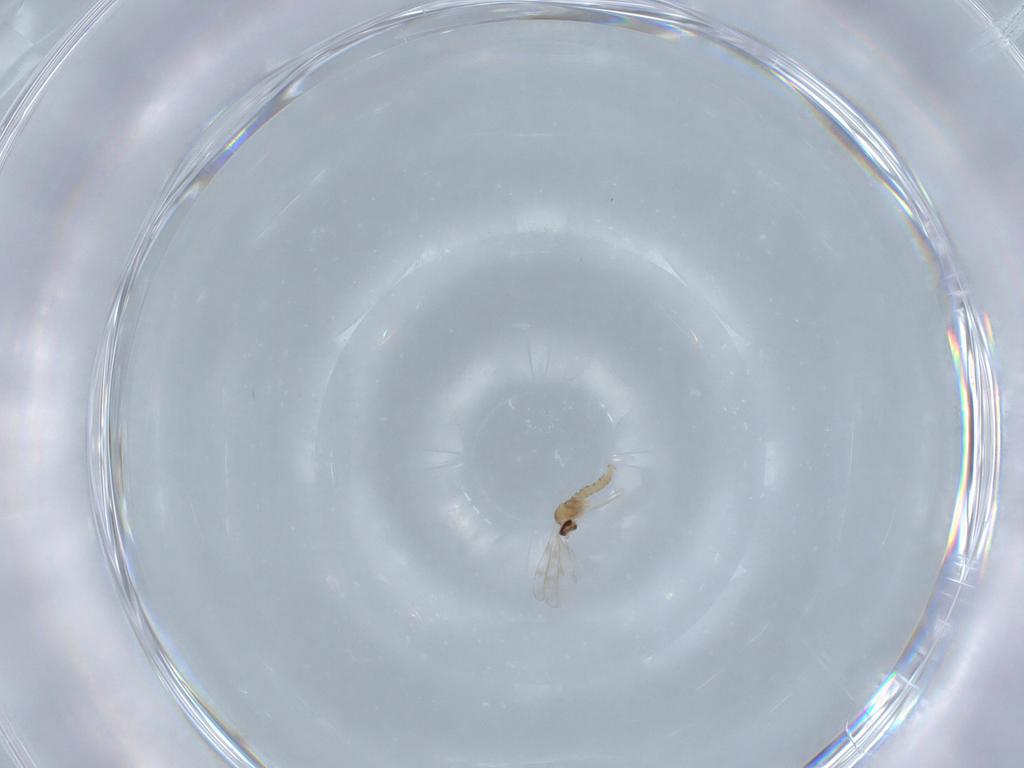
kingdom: Animalia
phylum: Arthropoda
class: Insecta
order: Diptera
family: Cecidomyiidae
